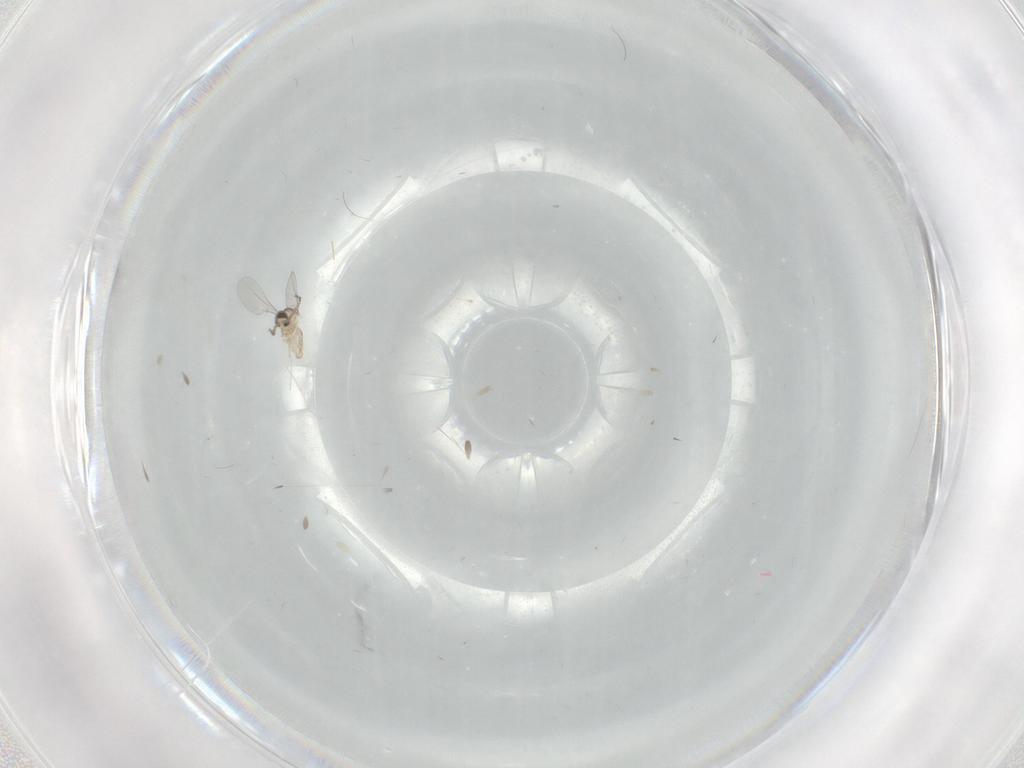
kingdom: Animalia
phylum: Arthropoda
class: Insecta
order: Diptera
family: Cecidomyiidae
